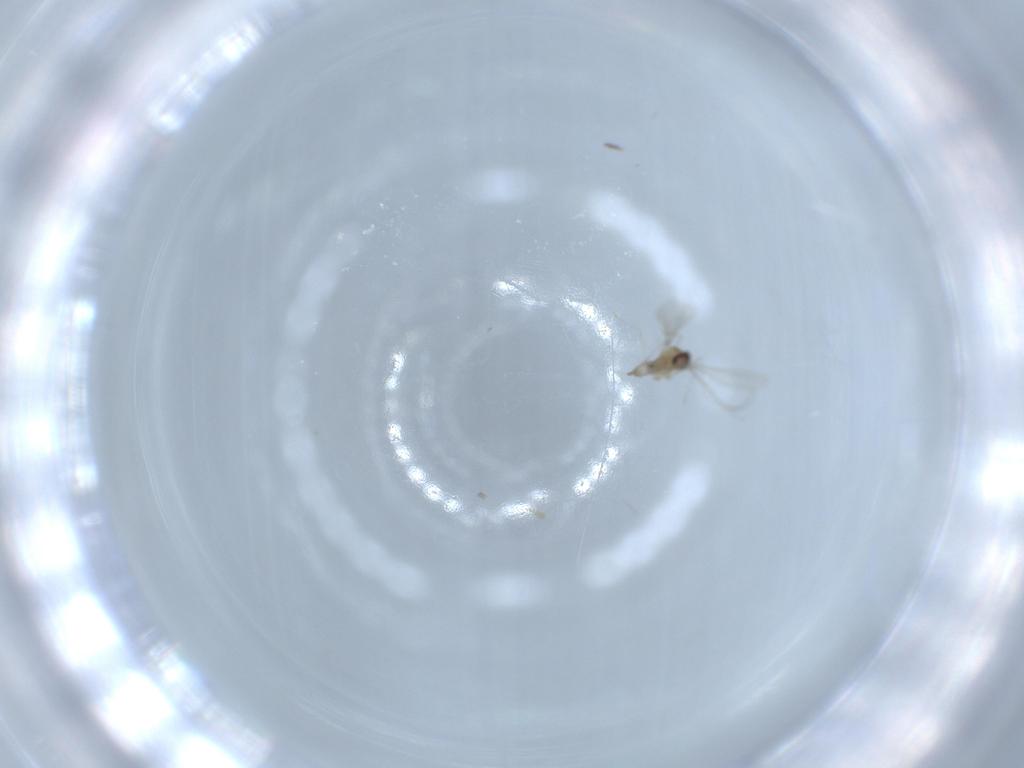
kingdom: Animalia
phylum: Arthropoda
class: Insecta
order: Diptera
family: Cecidomyiidae
